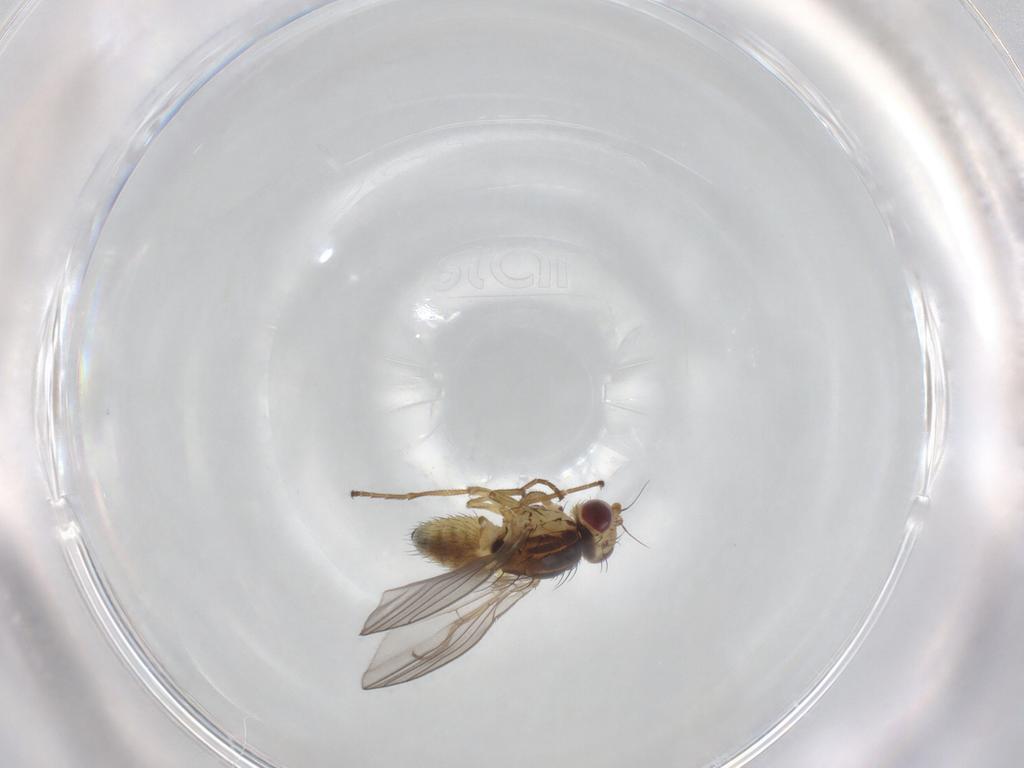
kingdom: Animalia
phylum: Arthropoda
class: Insecta
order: Diptera
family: Agromyzidae
